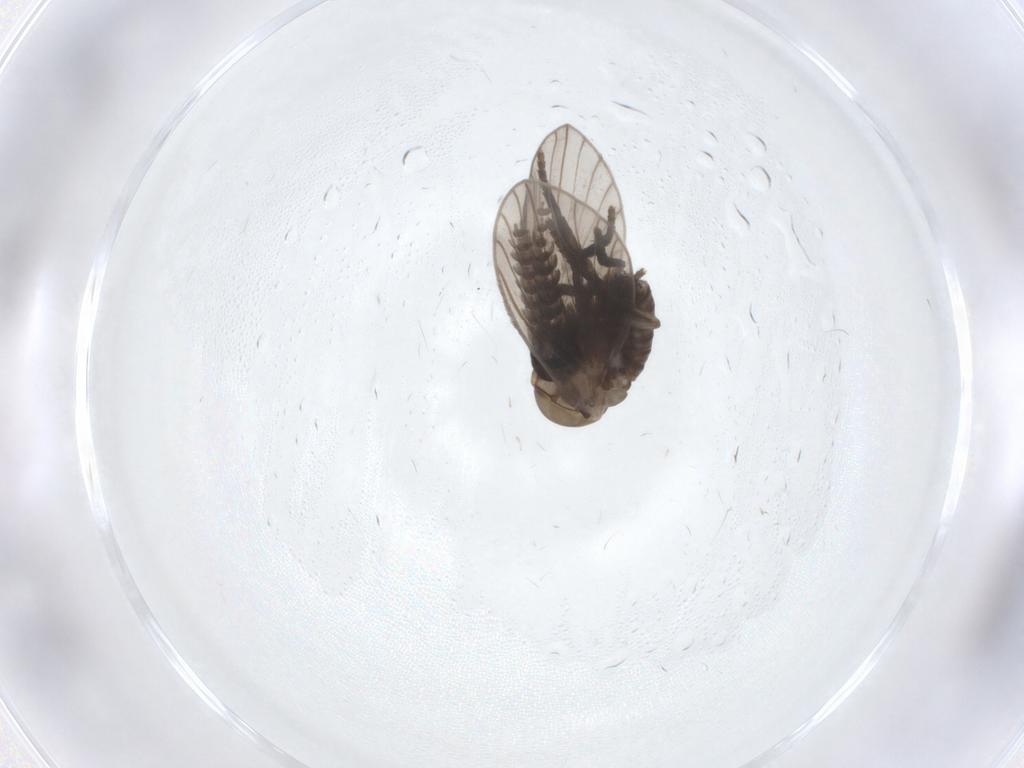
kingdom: Animalia
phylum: Arthropoda
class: Insecta
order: Diptera
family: Psychodidae
